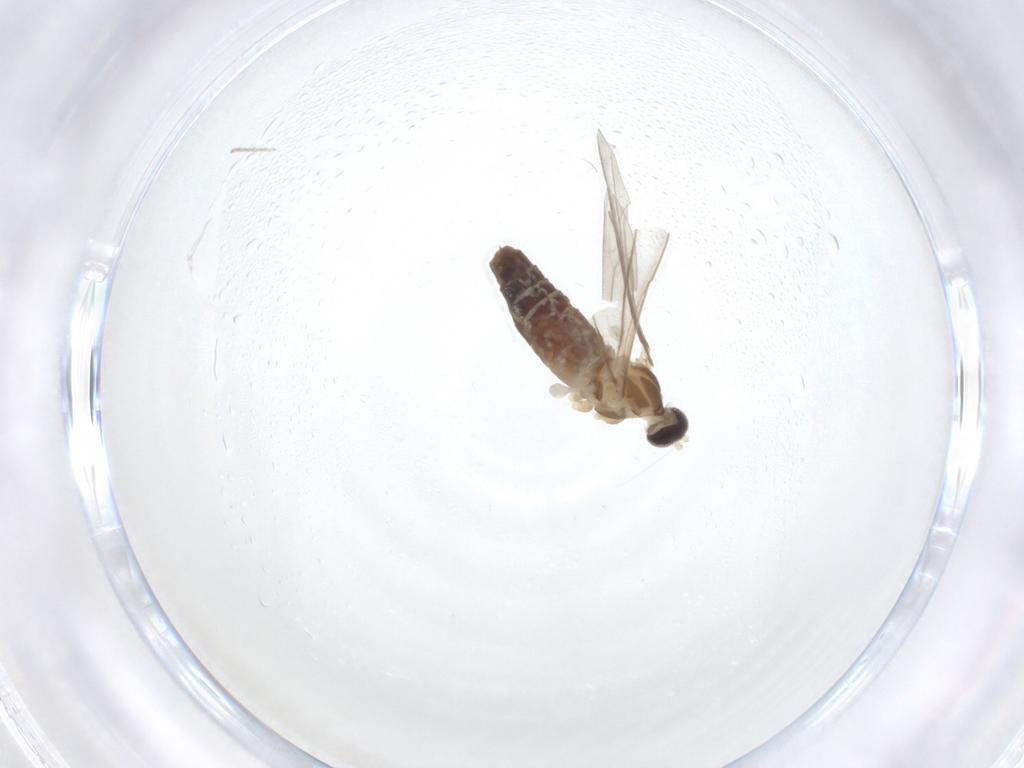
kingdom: Animalia
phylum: Arthropoda
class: Insecta
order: Diptera
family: Cecidomyiidae
